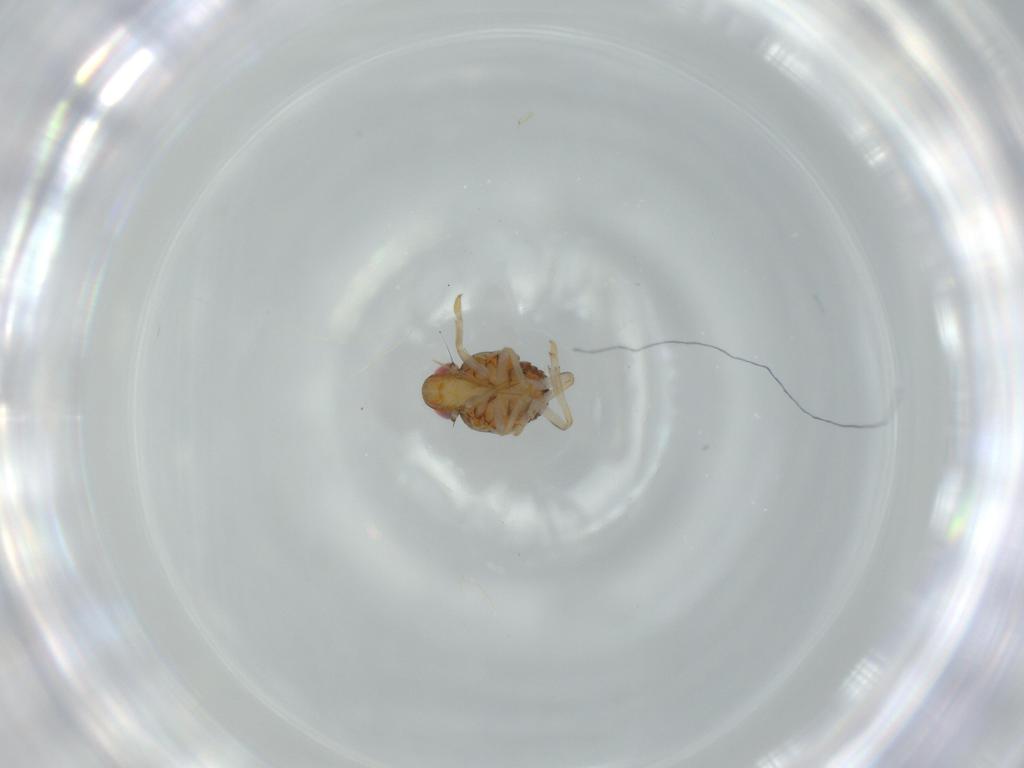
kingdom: Animalia
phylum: Arthropoda
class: Insecta
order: Hemiptera
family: Issidae
